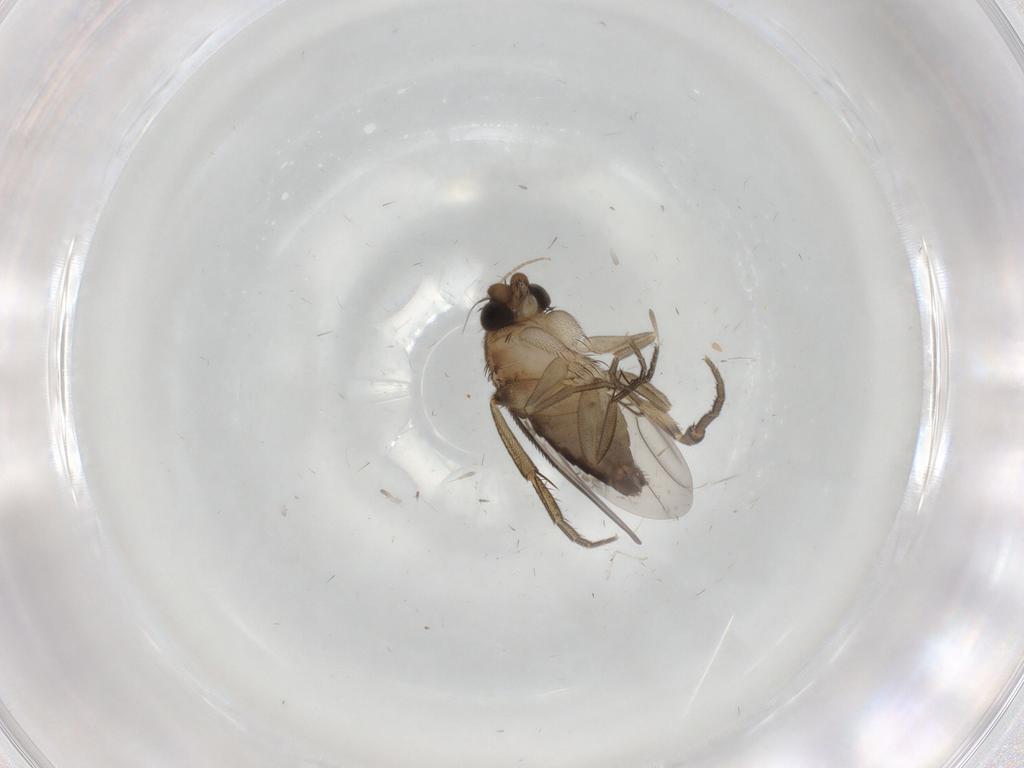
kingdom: Animalia
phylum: Arthropoda
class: Insecta
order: Diptera
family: Phoridae
